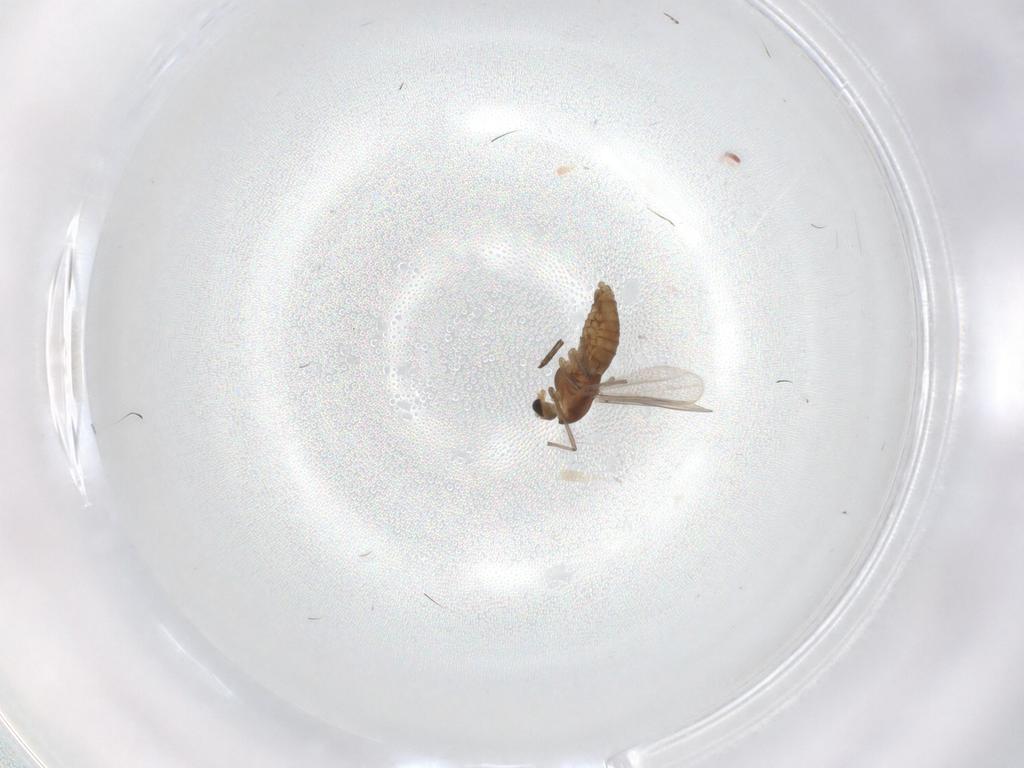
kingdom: Animalia
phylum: Arthropoda
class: Insecta
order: Diptera
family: Chironomidae
